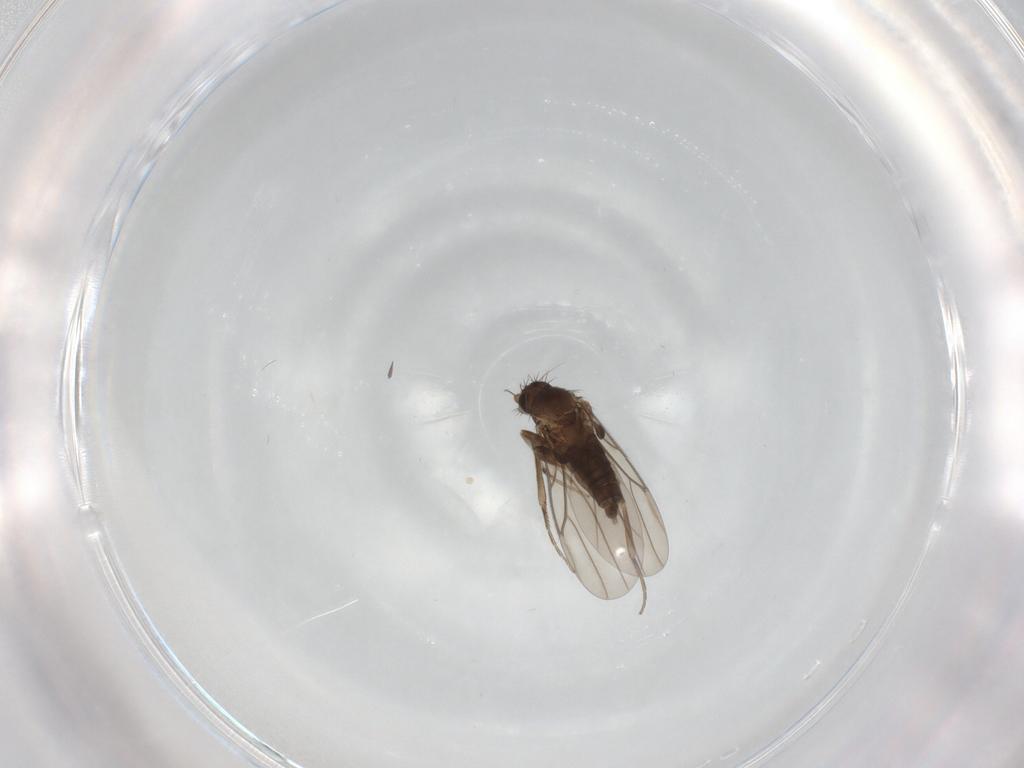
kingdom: Animalia
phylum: Arthropoda
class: Insecta
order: Diptera
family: Phoridae
